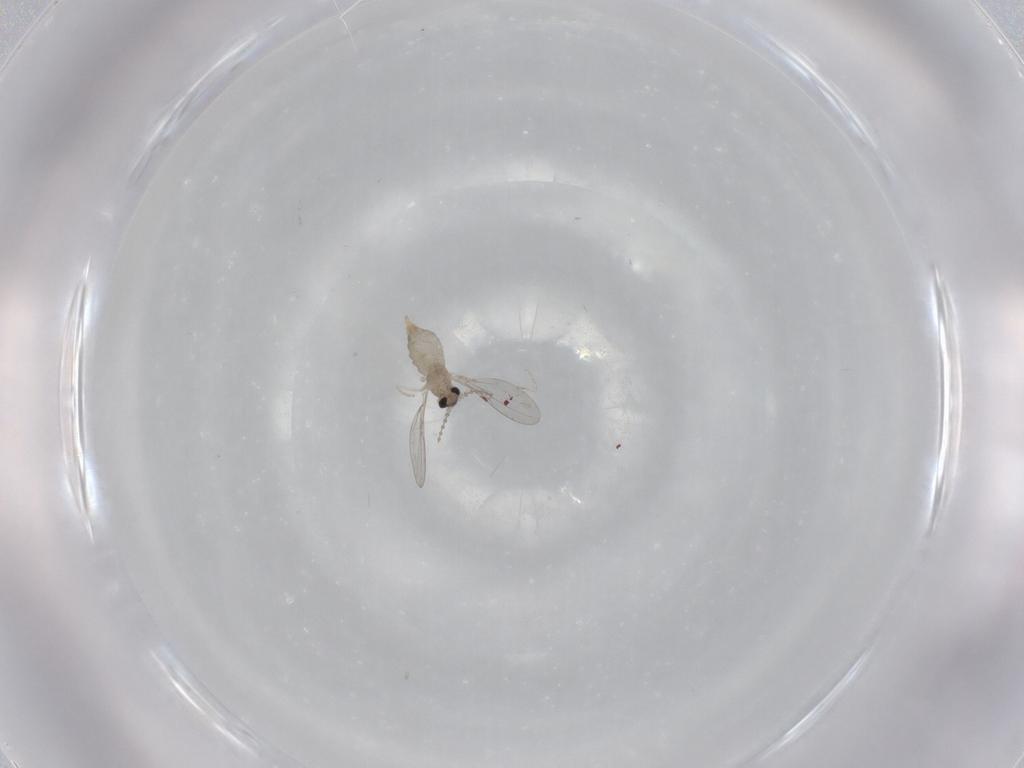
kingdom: Animalia
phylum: Arthropoda
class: Insecta
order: Diptera
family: Cecidomyiidae
